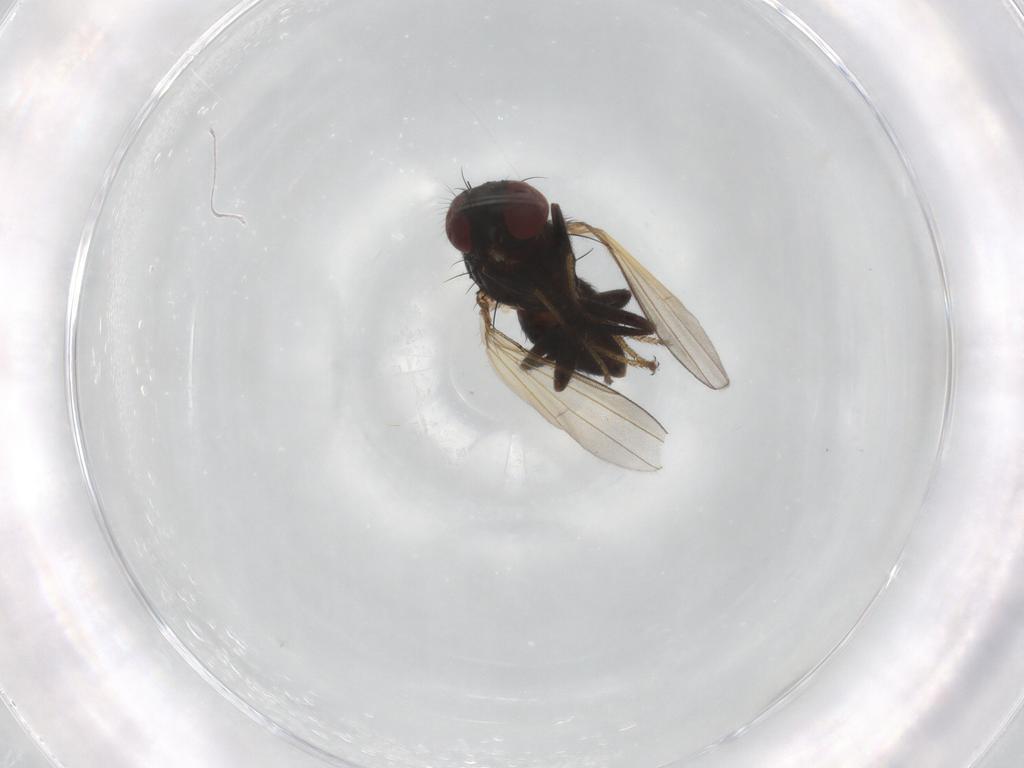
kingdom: Animalia
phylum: Arthropoda
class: Insecta
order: Diptera
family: Ephydridae
